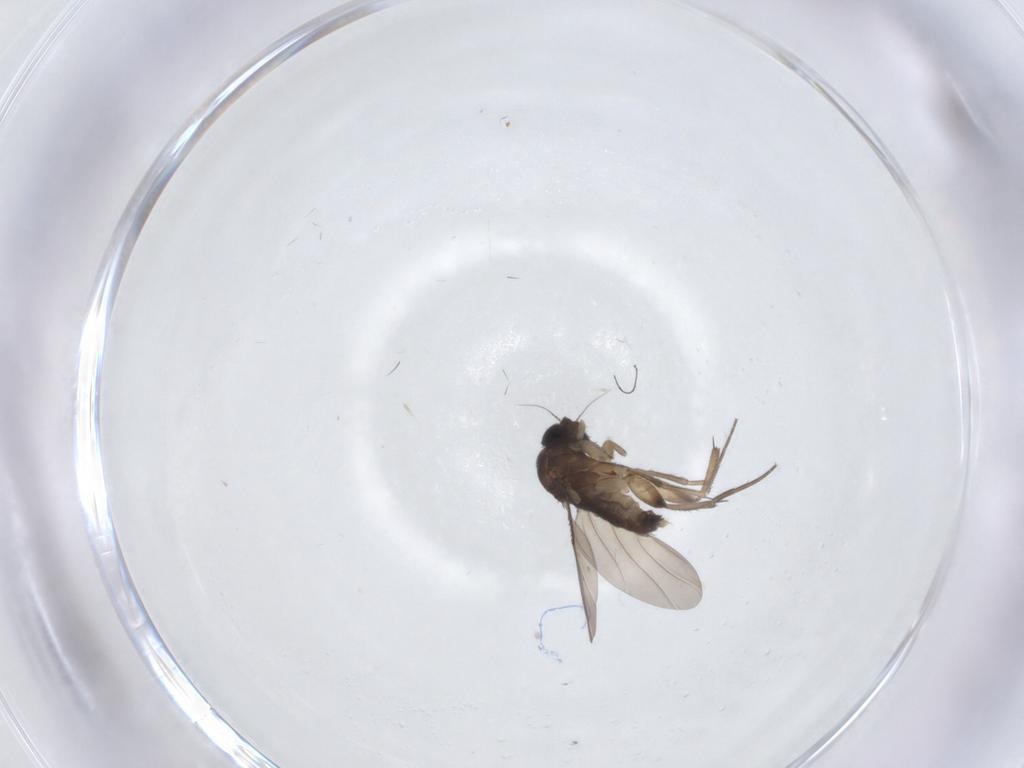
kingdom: Animalia
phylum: Arthropoda
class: Insecta
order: Diptera
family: Phoridae
